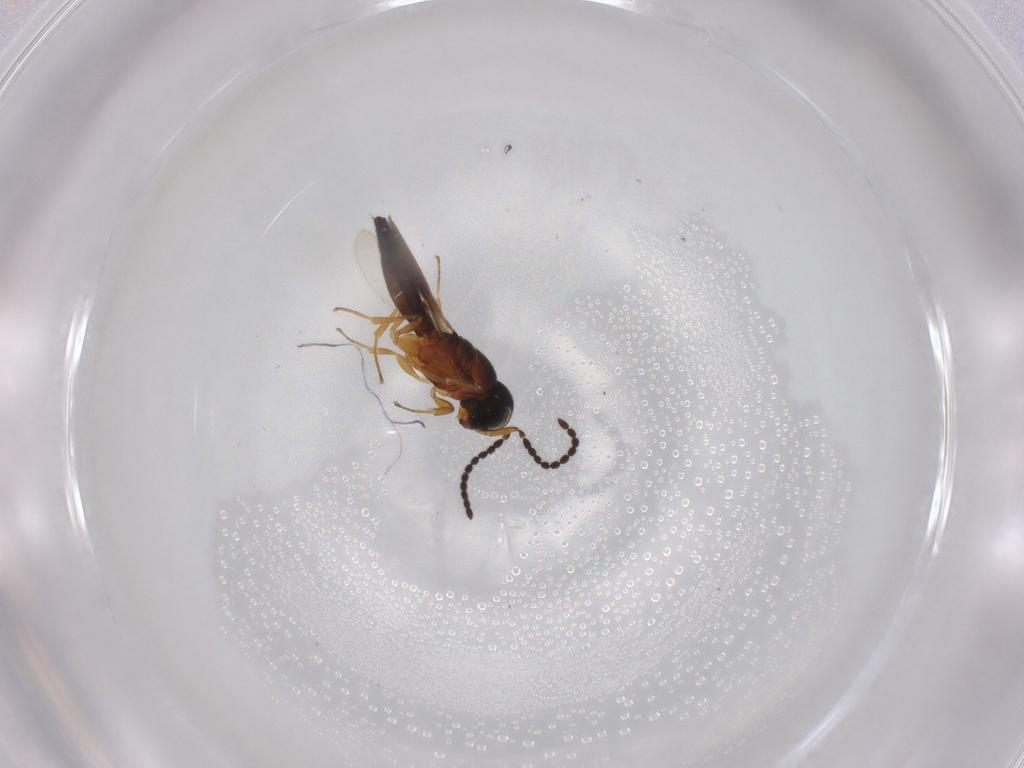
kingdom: Animalia
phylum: Arthropoda
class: Insecta
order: Hymenoptera
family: Scelionidae
